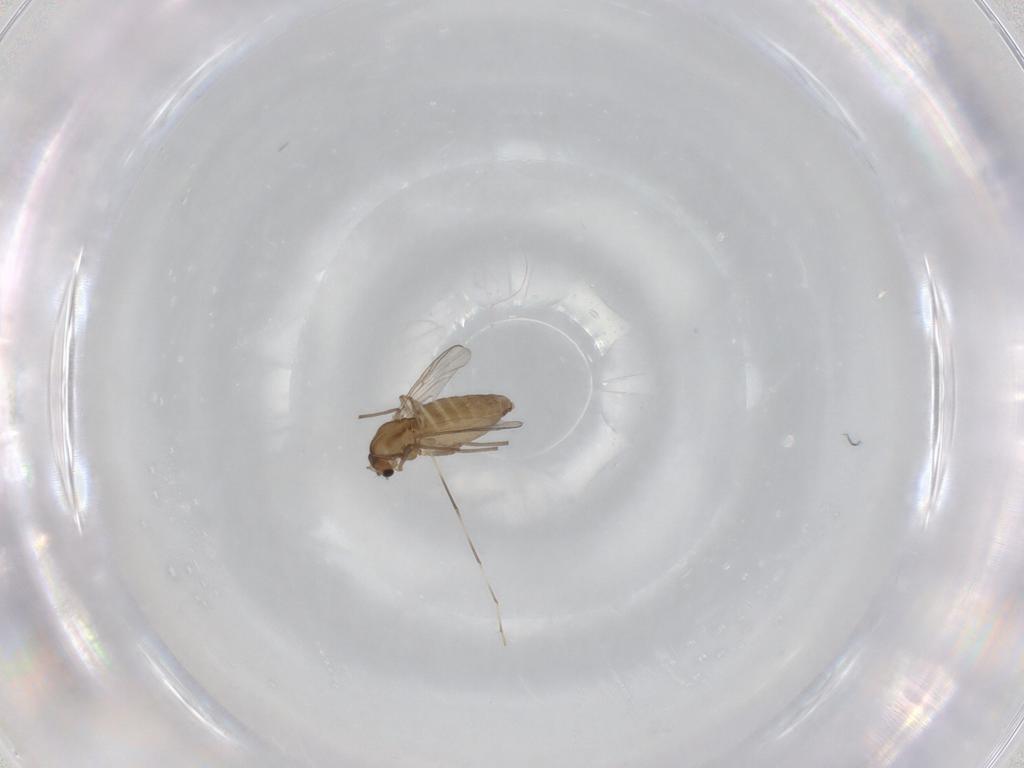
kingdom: Animalia
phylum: Arthropoda
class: Insecta
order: Diptera
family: Chironomidae
